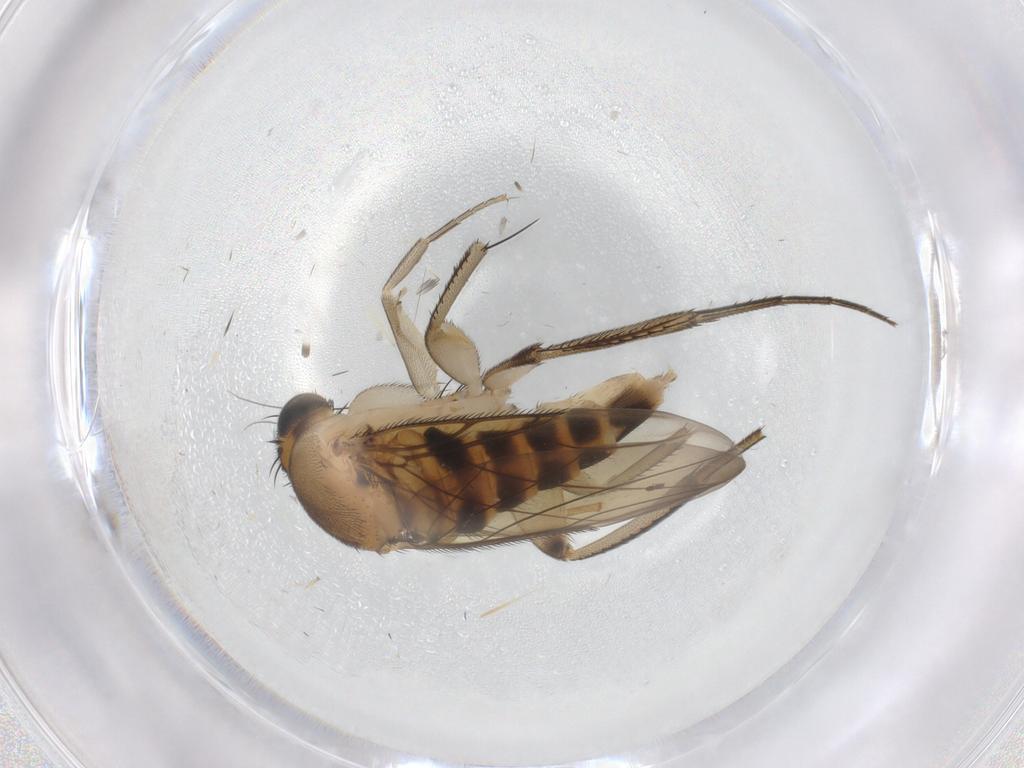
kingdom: Animalia
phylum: Arthropoda
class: Insecta
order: Diptera
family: Phoridae
